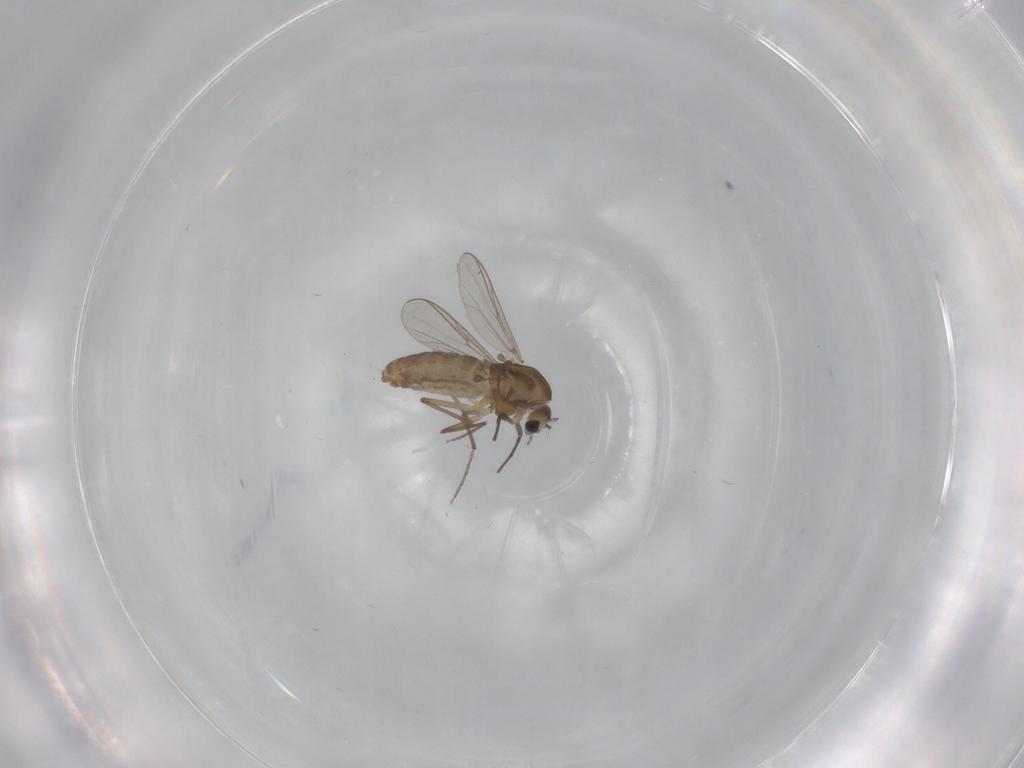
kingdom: Animalia
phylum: Arthropoda
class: Insecta
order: Diptera
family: Chironomidae
